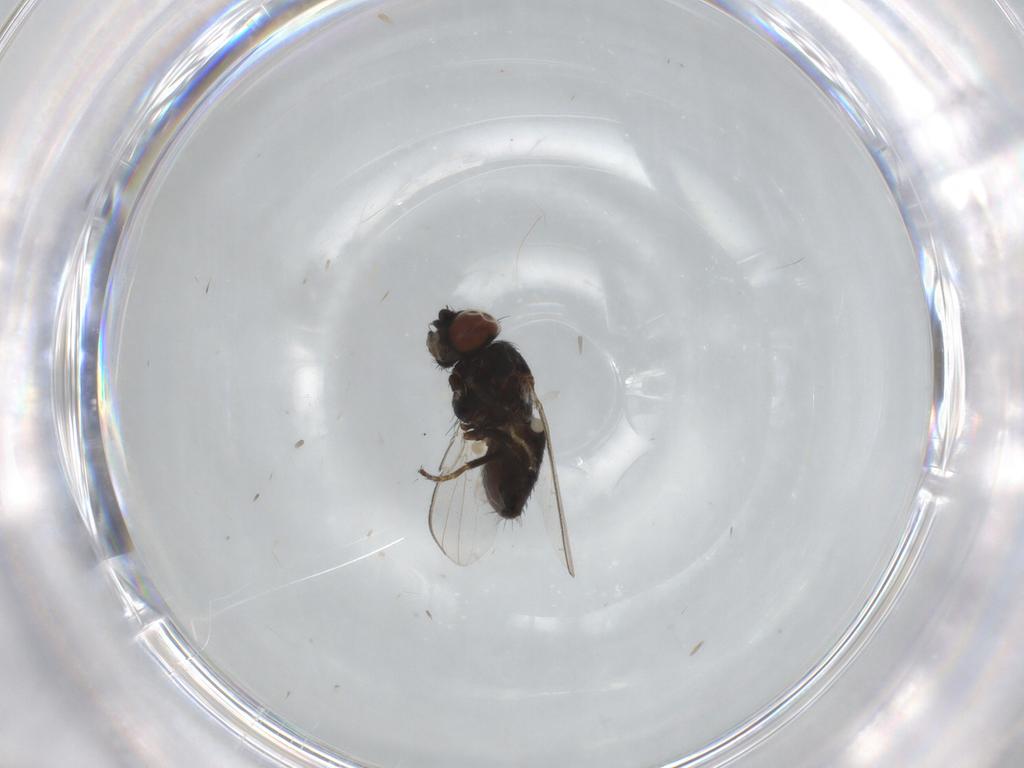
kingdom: Animalia
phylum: Arthropoda
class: Insecta
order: Diptera
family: Milichiidae
